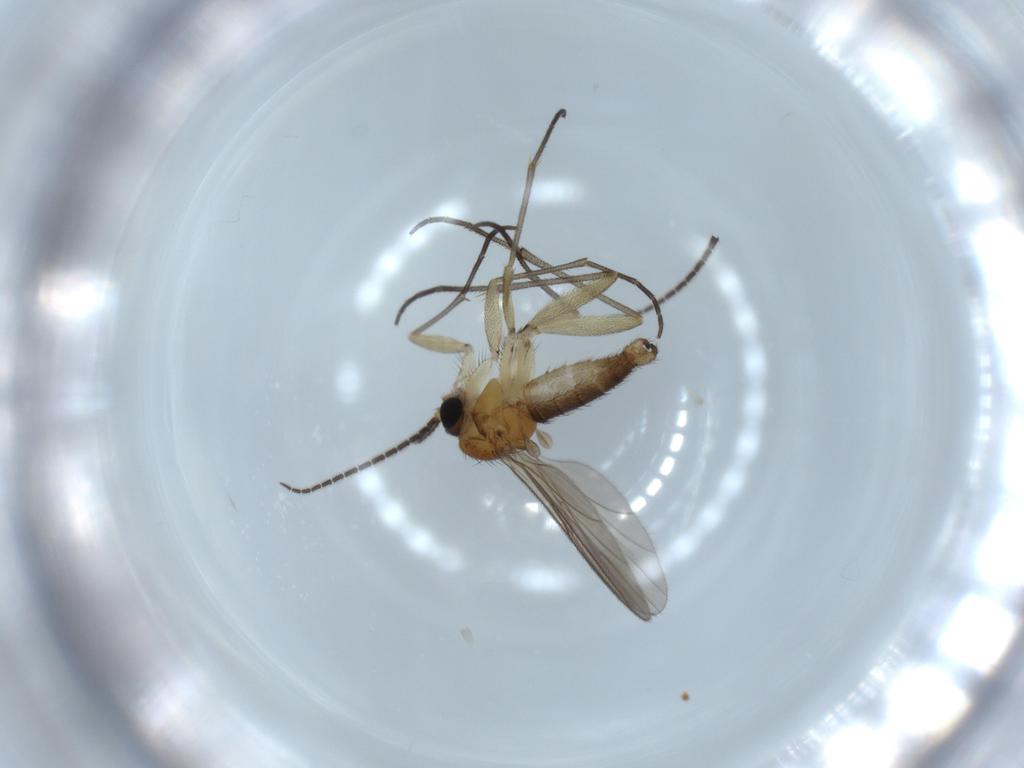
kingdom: Animalia
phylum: Arthropoda
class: Insecta
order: Diptera
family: Sciaridae
